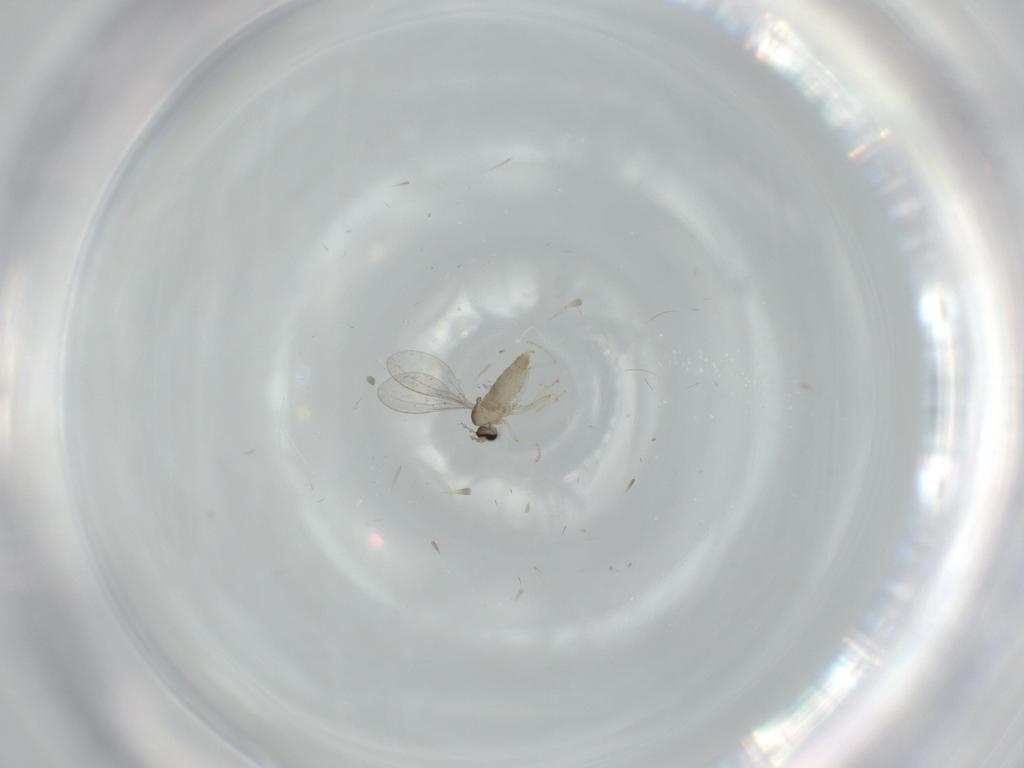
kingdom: Animalia
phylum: Arthropoda
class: Insecta
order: Diptera
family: Cecidomyiidae
